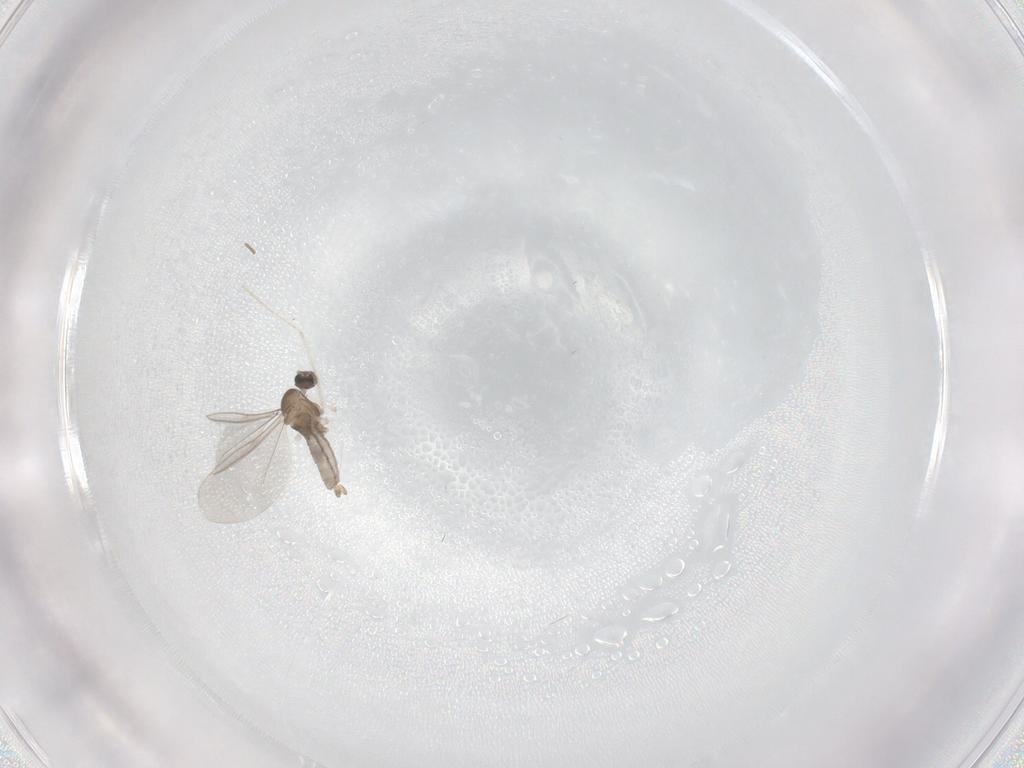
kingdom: Animalia
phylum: Arthropoda
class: Insecta
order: Diptera
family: Cecidomyiidae
